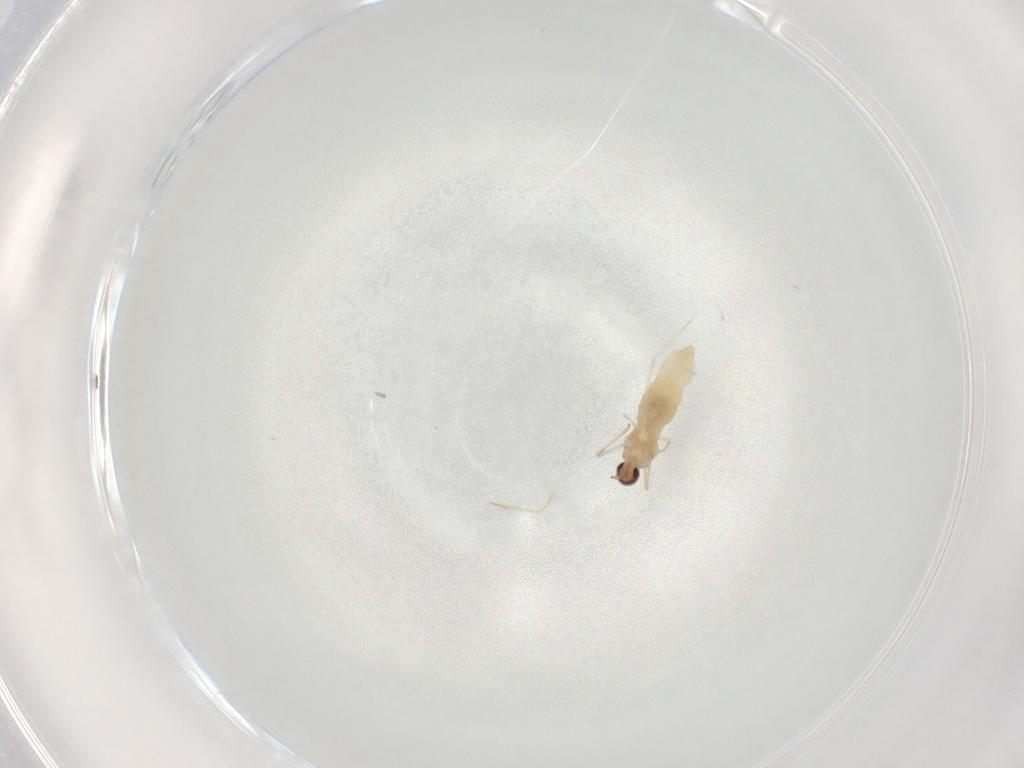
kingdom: Animalia
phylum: Arthropoda
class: Insecta
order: Diptera
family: Cecidomyiidae
